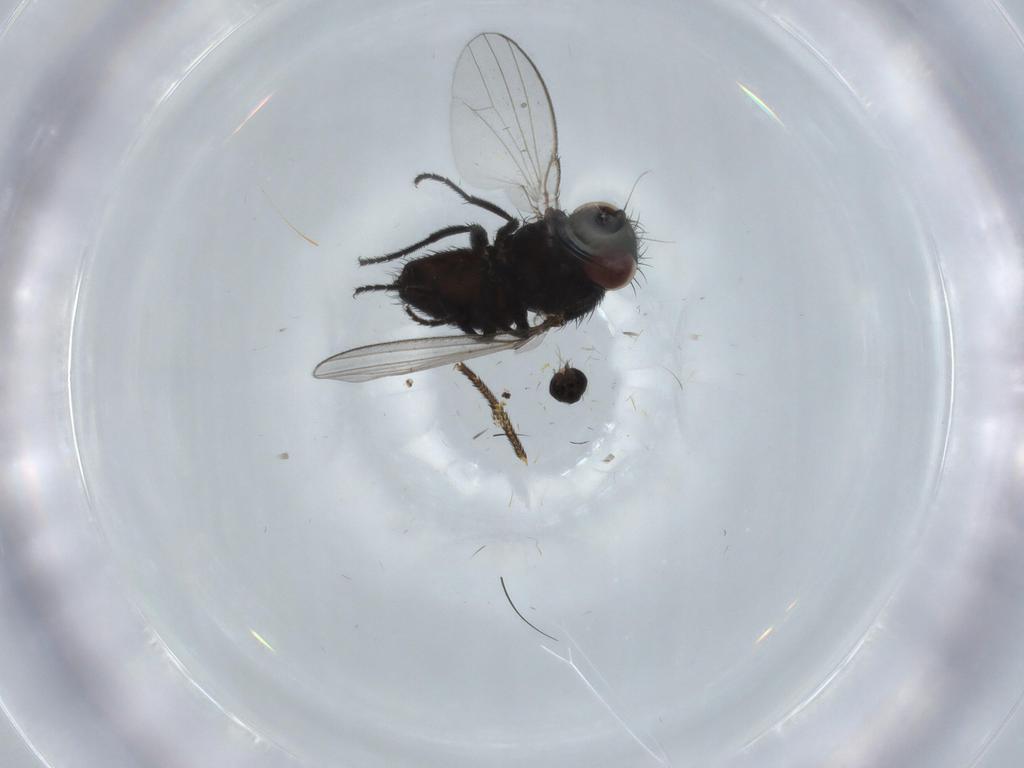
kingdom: Animalia
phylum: Arthropoda
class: Insecta
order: Diptera
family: Phoridae
